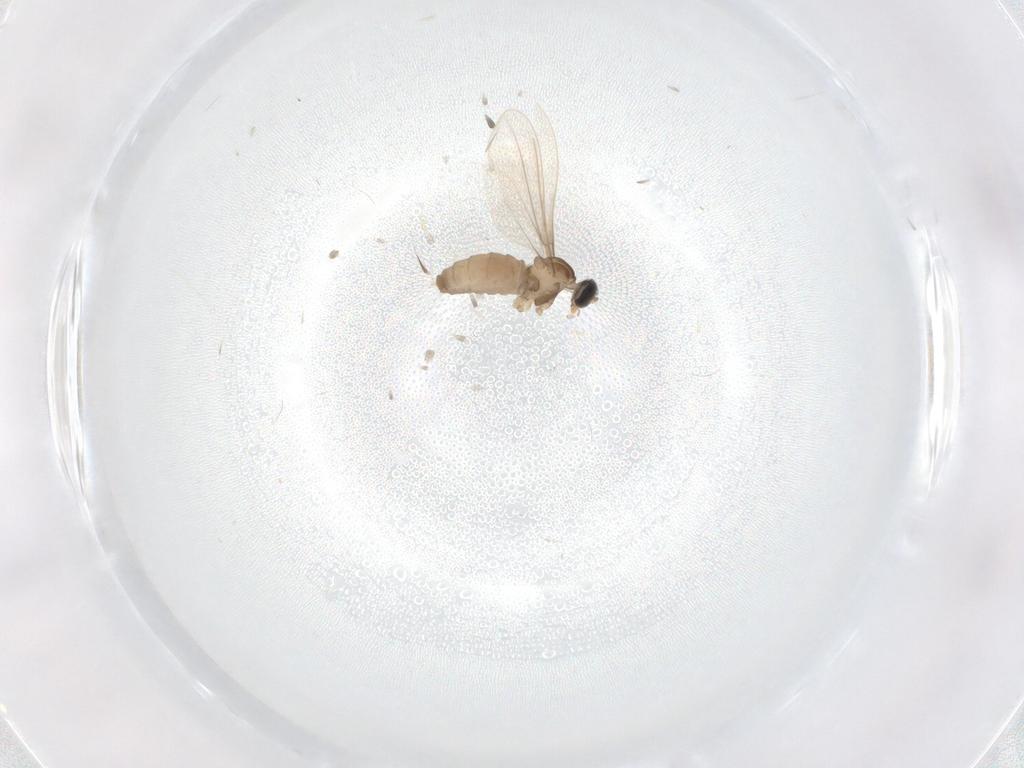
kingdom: Animalia
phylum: Arthropoda
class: Insecta
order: Diptera
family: Cecidomyiidae
